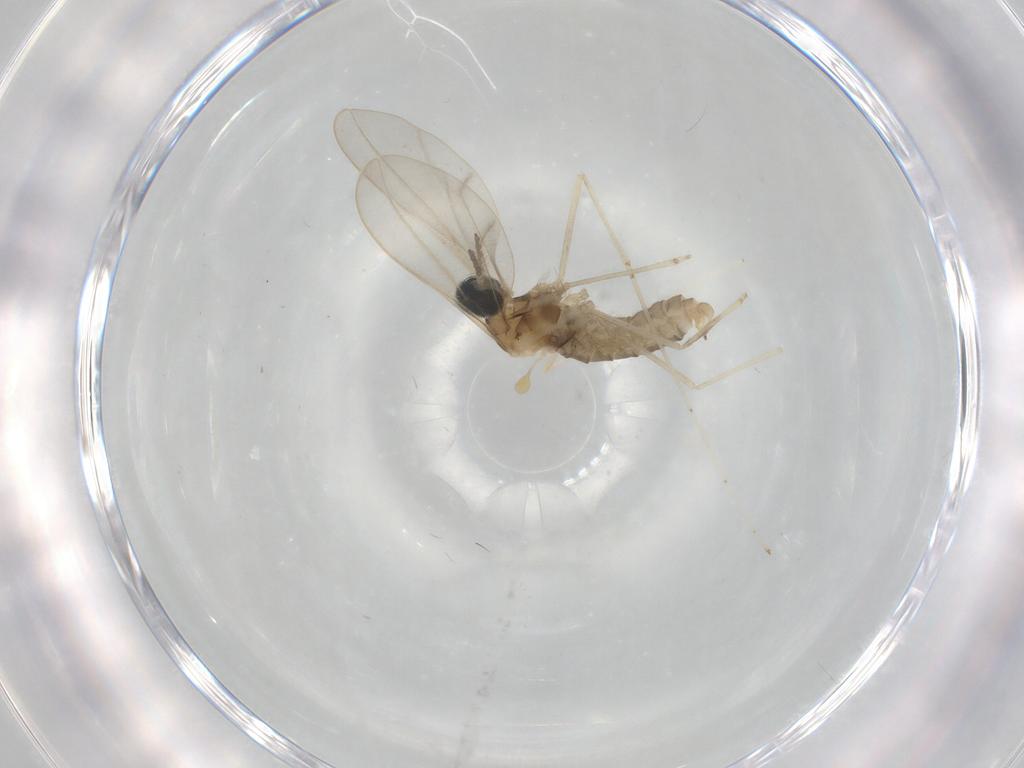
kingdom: Animalia
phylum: Arthropoda
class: Insecta
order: Diptera
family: Cecidomyiidae
